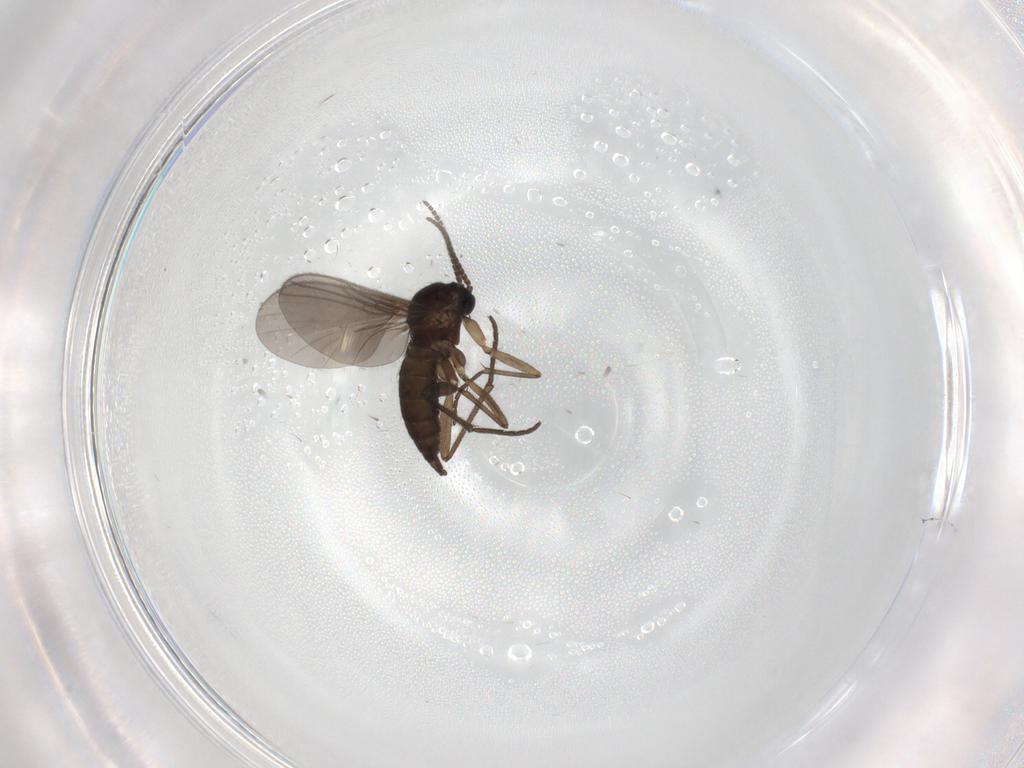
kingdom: Animalia
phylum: Arthropoda
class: Insecta
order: Diptera
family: Sciaridae
